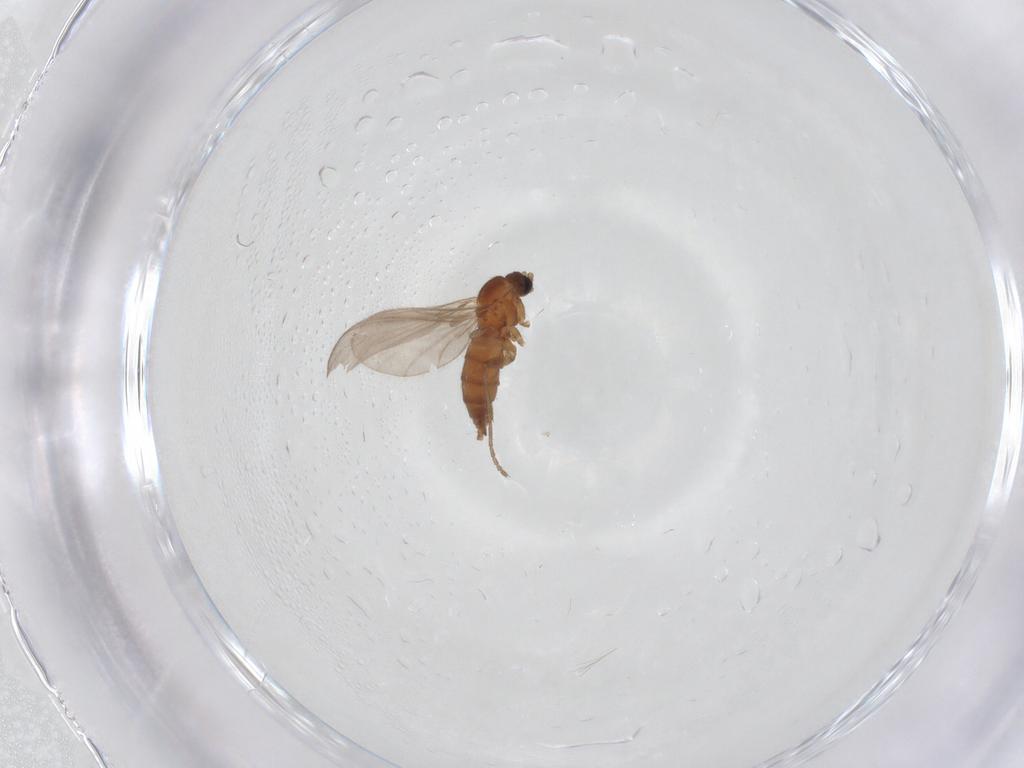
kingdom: Animalia
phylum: Arthropoda
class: Insecta
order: Diptera
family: Sciaridae
